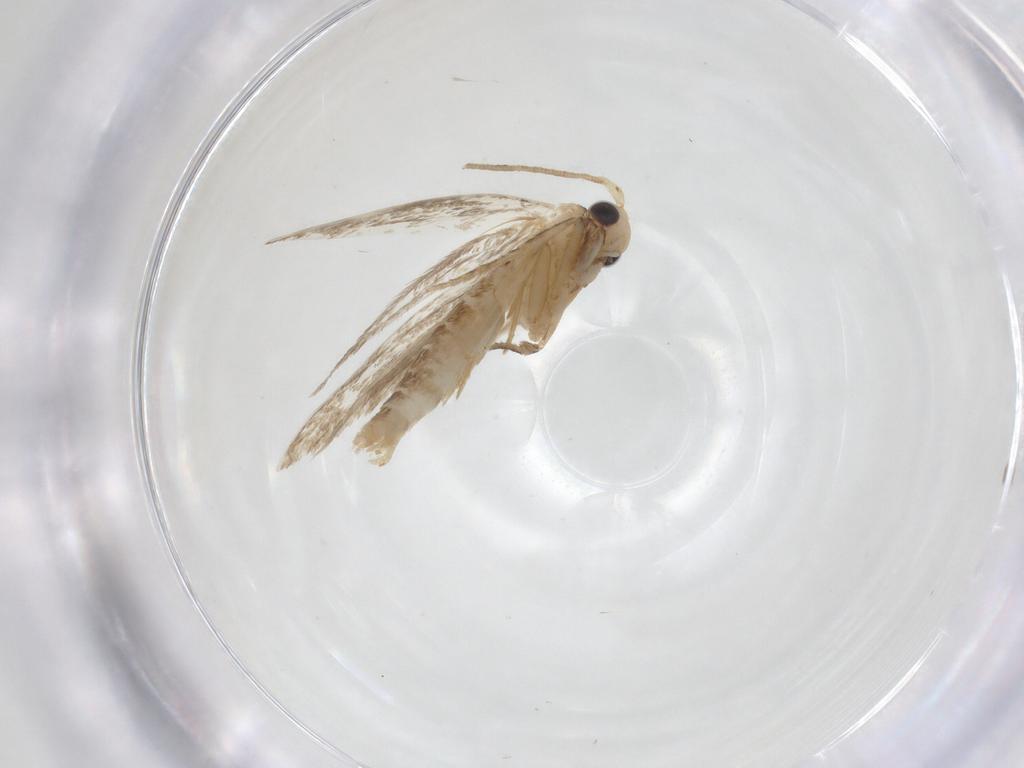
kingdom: Animalia
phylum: Arthropoda
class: Insecta
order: Lepidoptera
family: Tineidae
